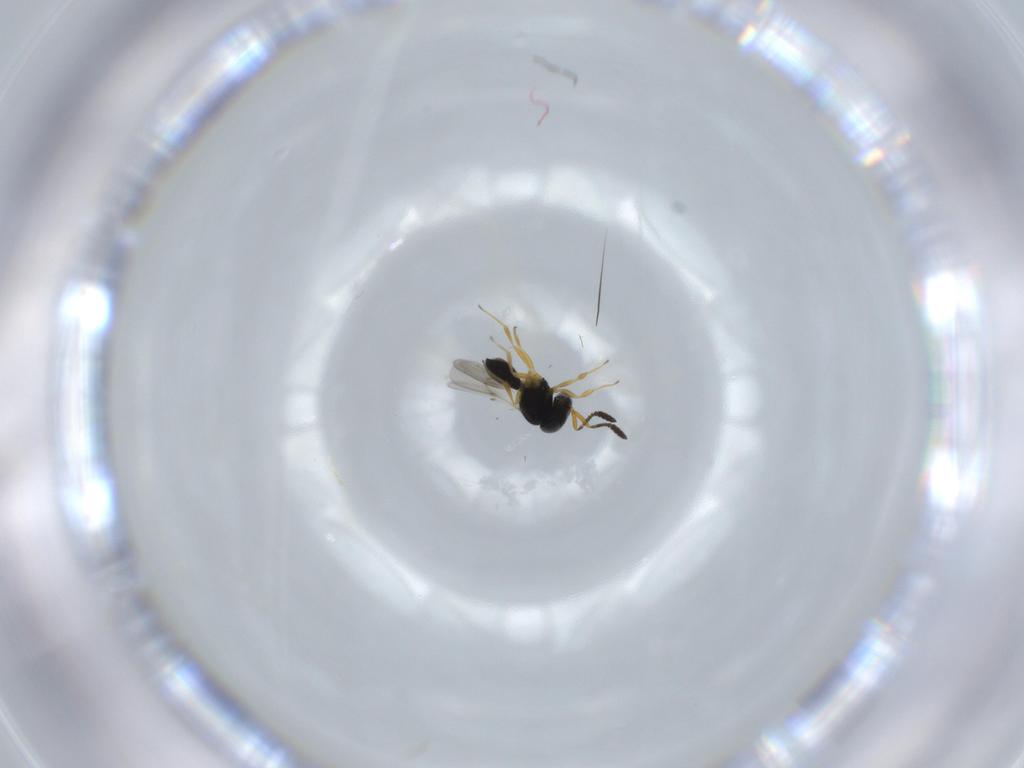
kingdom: Animalia
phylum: Arthropoda
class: Insecta
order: Hymenoptera
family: Scelionidae
